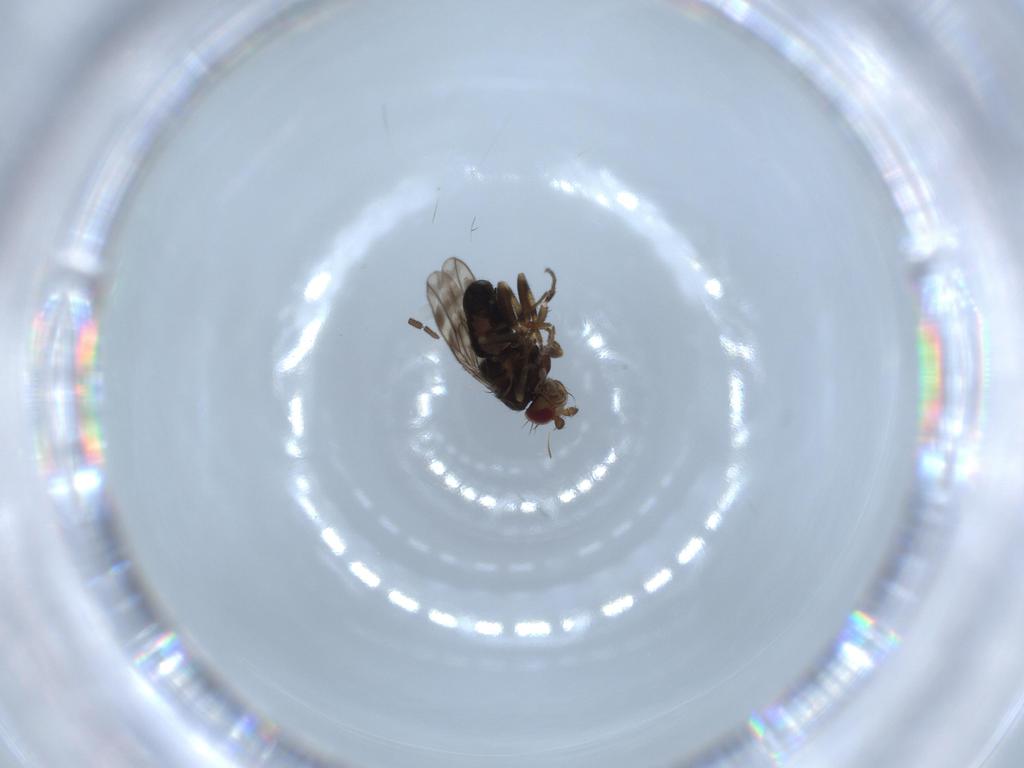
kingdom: Animalia
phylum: Arthropoda
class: Insecta
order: Diptera
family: Sphaeroceridae
